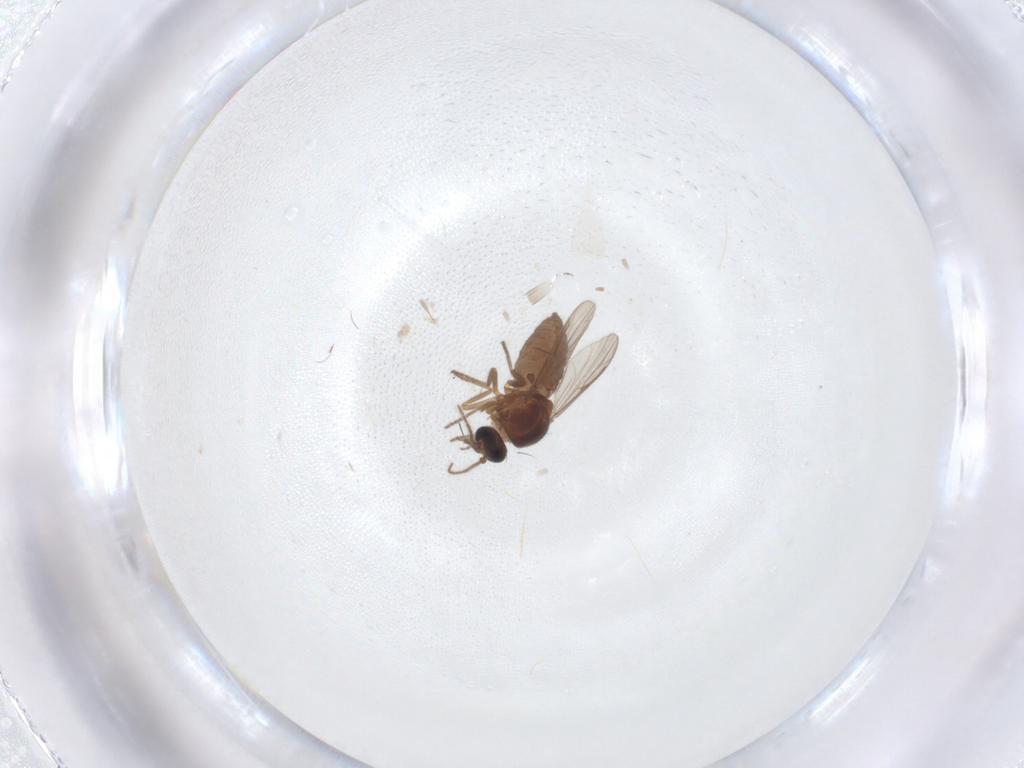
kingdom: Animalia
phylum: Arthropoda
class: Insecta
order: Diptera
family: Ceratopogonidae
